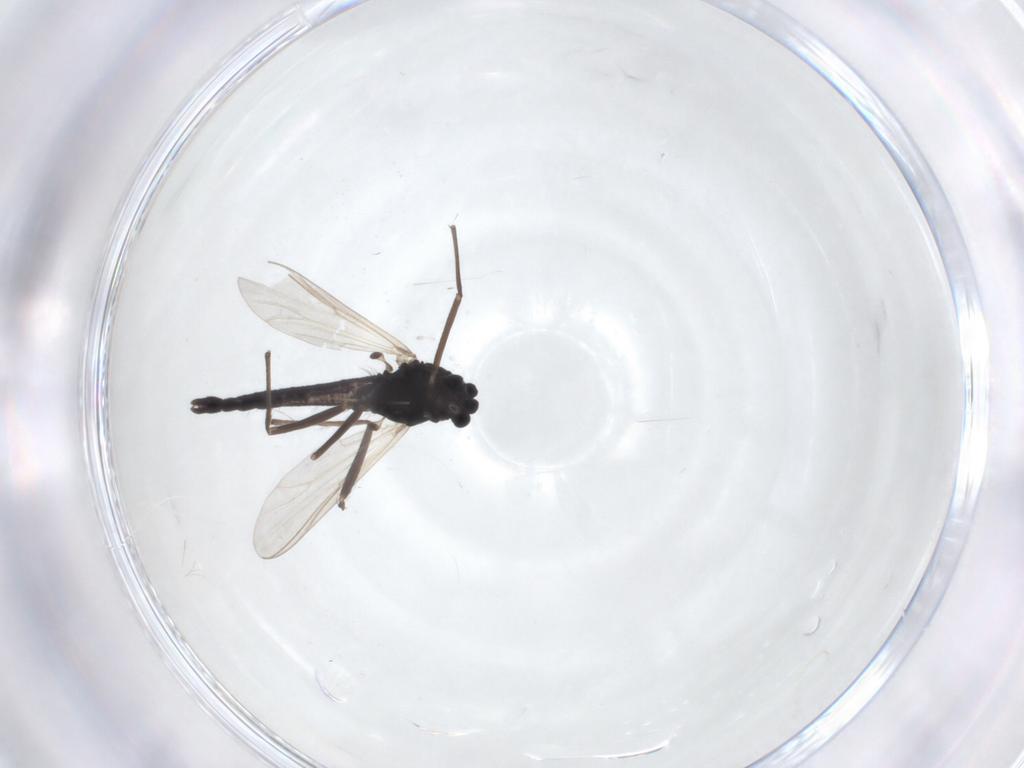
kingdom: Animalia
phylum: Arthropoda
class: Insecta
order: Diptera
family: Chironomidae
